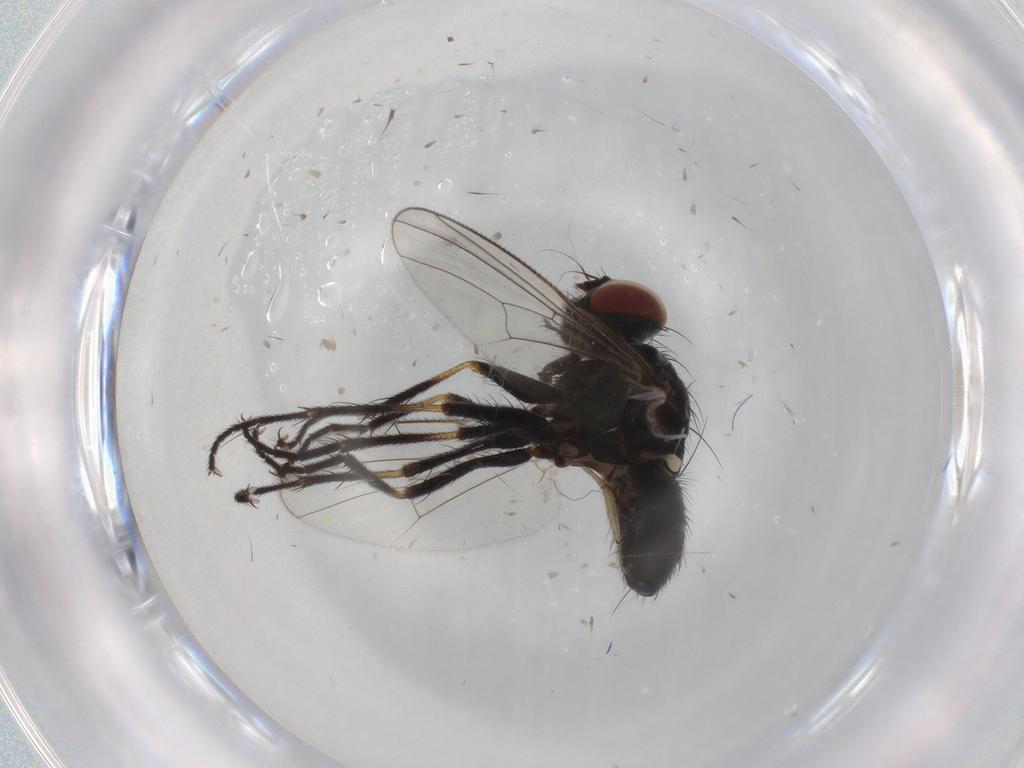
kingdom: Animalia
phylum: Arthropoda
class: Insecta
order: Diptera
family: Muscidae
